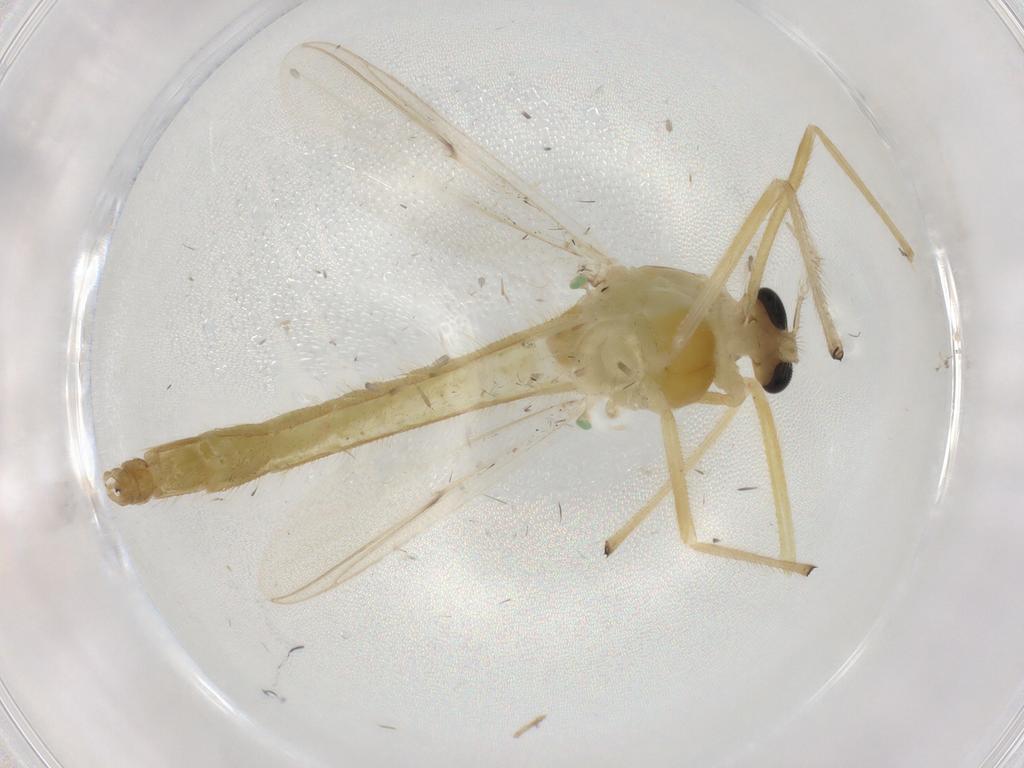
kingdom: Animalia
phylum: Arthropoda
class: Insecta
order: Diptera
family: Chironomidae
